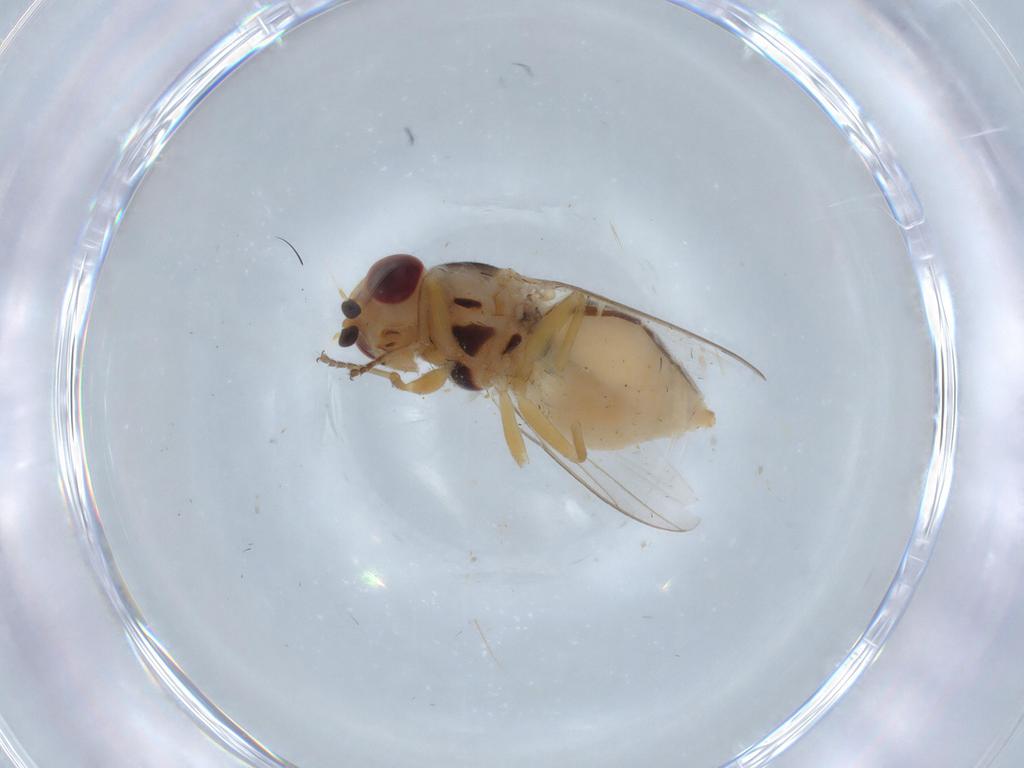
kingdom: Animalia
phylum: Arthropoda
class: Insecta
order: Diptera
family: Chloropidae
